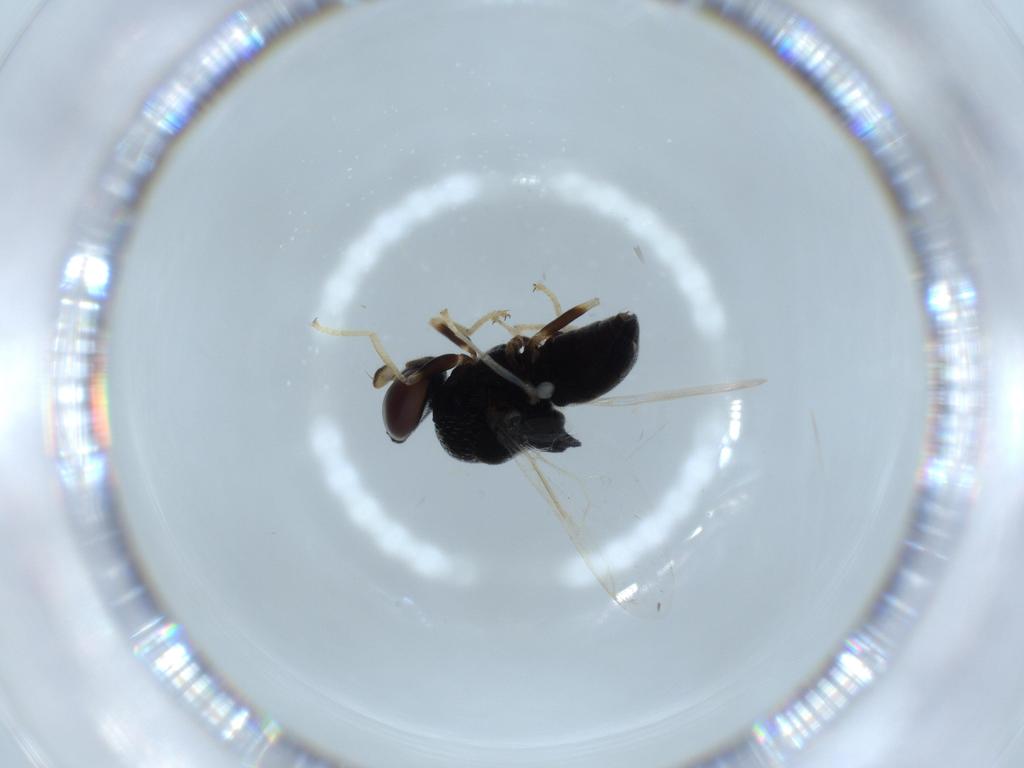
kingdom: Animalia
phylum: Arthropoda
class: Insecta
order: Diptera
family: Stratiomyidae
